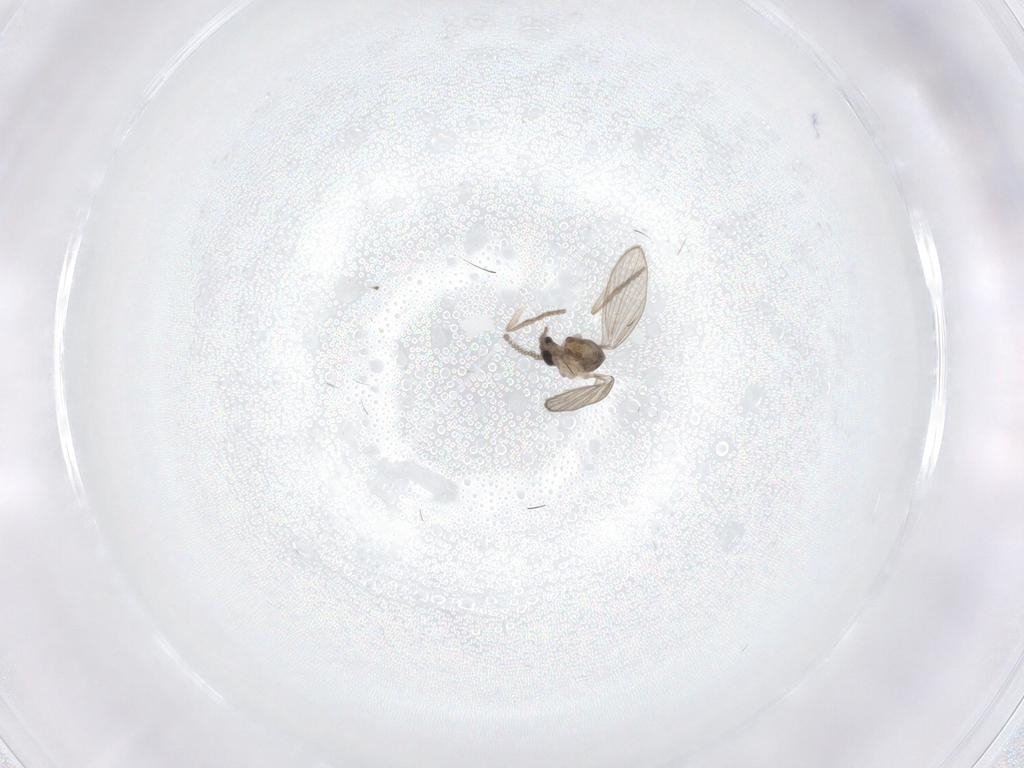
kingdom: Animalia
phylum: Arthropoda
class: Insecta
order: Diptera
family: Psychodidae
